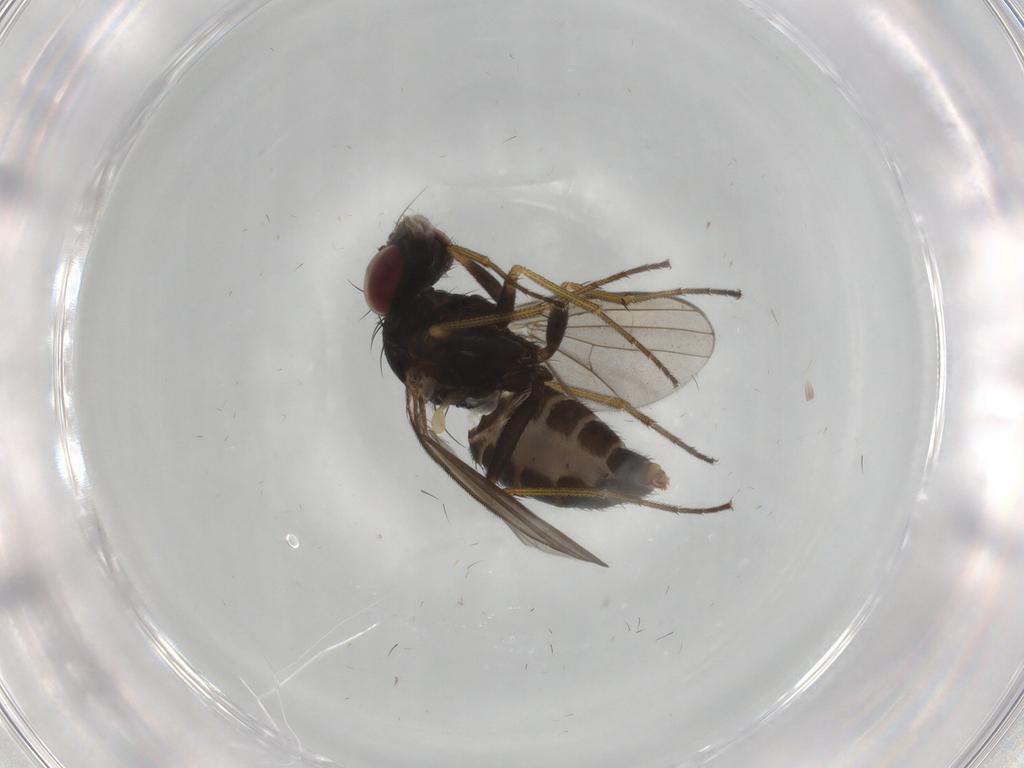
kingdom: Animalia
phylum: Arthropoda
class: Insecta
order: Diptera
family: Dolichopodidae
